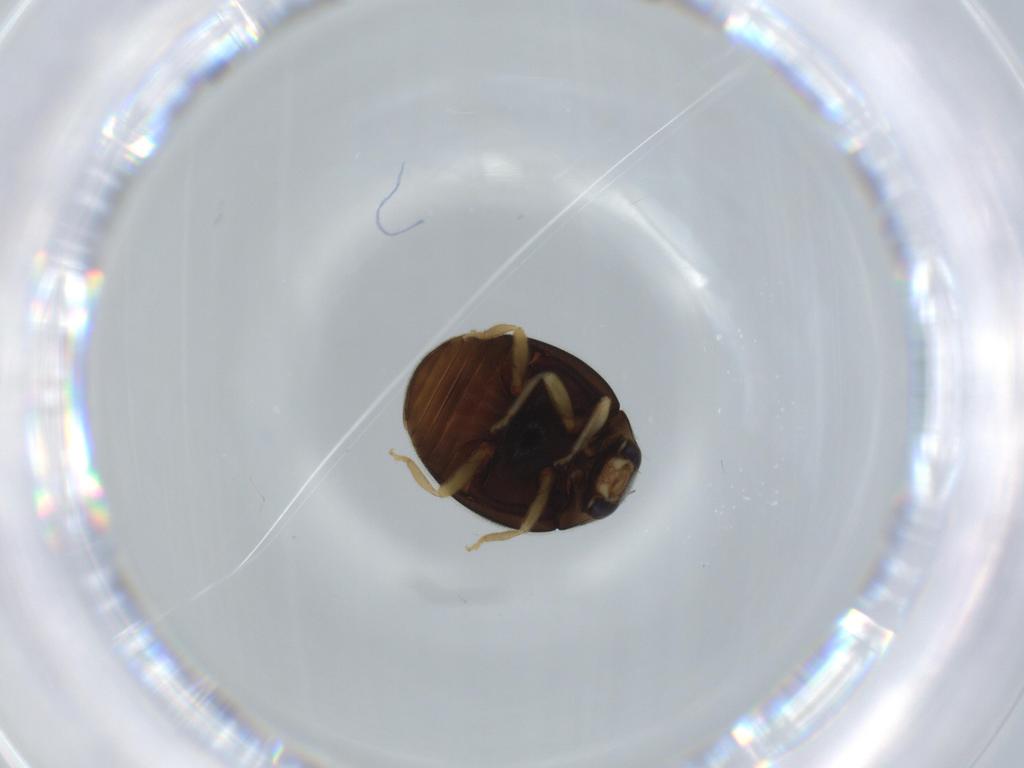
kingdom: Animalia
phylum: Arthropoda
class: Insecta
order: Coleoptera
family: Coccinellidae
